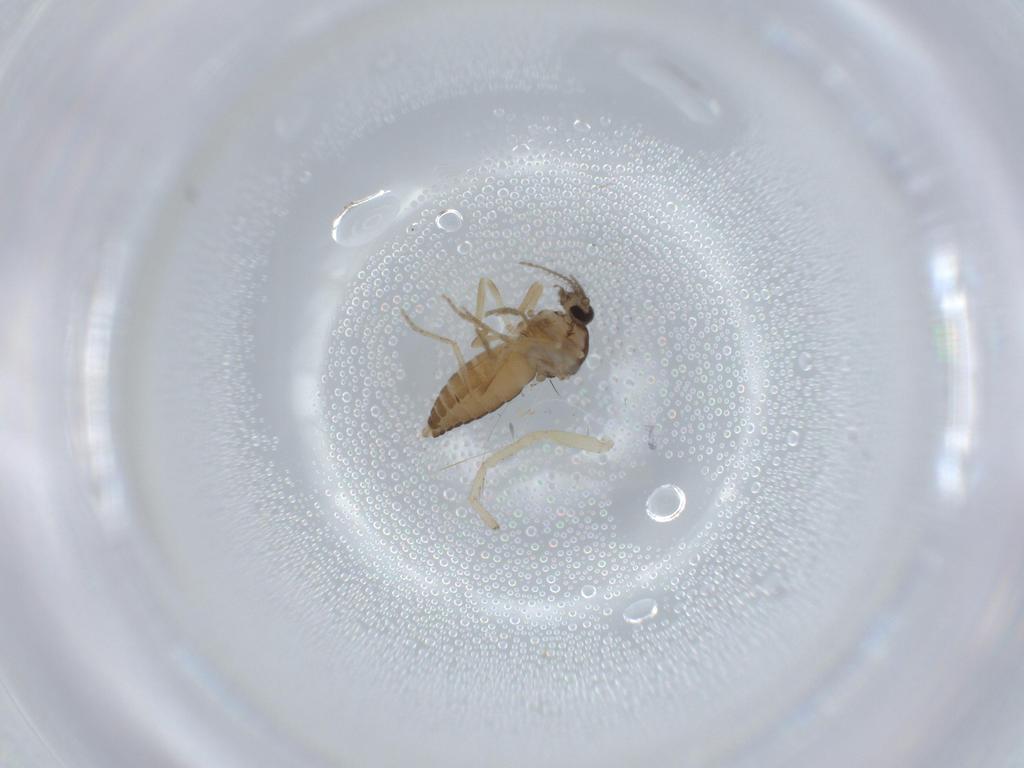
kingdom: Animalia
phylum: Arthropoda
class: Insecta
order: Diptera
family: Ceratopogonidae
